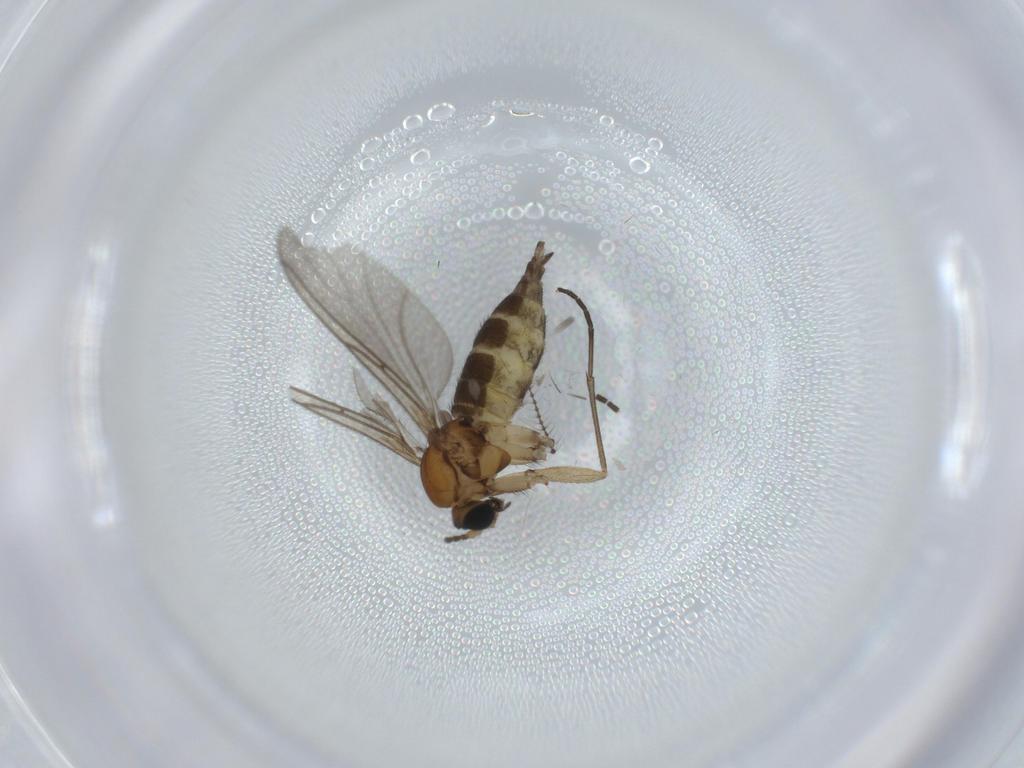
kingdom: Animalia
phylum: Arthropoda
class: Insecta
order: Diptera
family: Sciaridae
